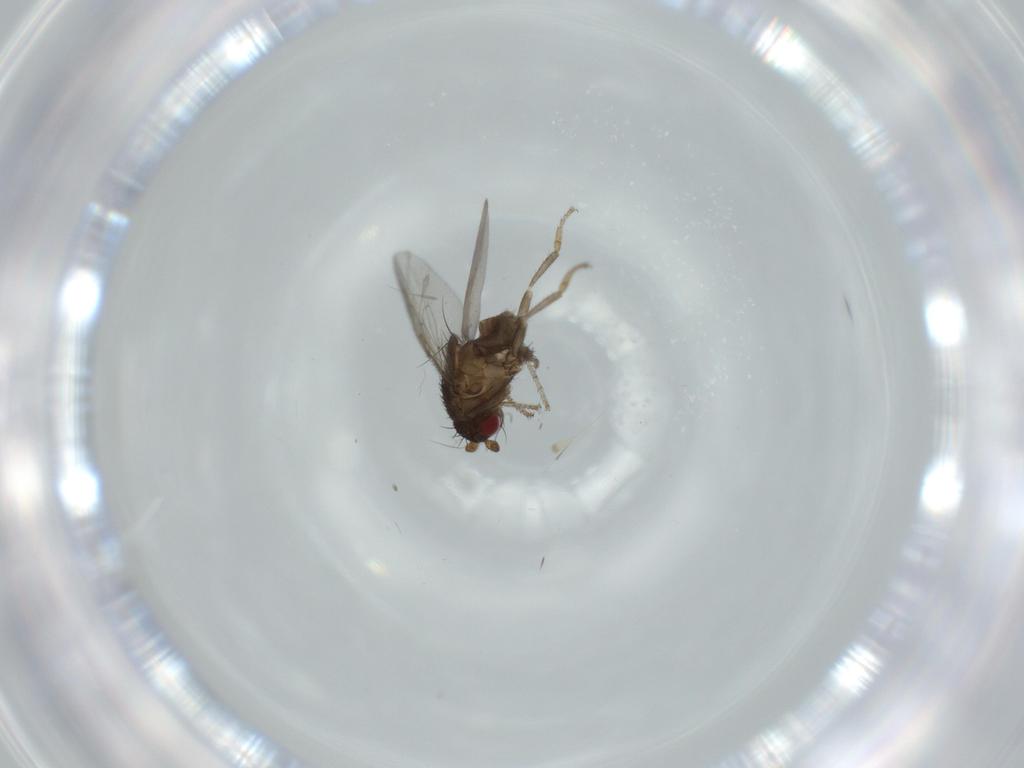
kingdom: Animalia
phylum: Arthropoda
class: Insecta
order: Diptera
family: Sphaeroceridae
